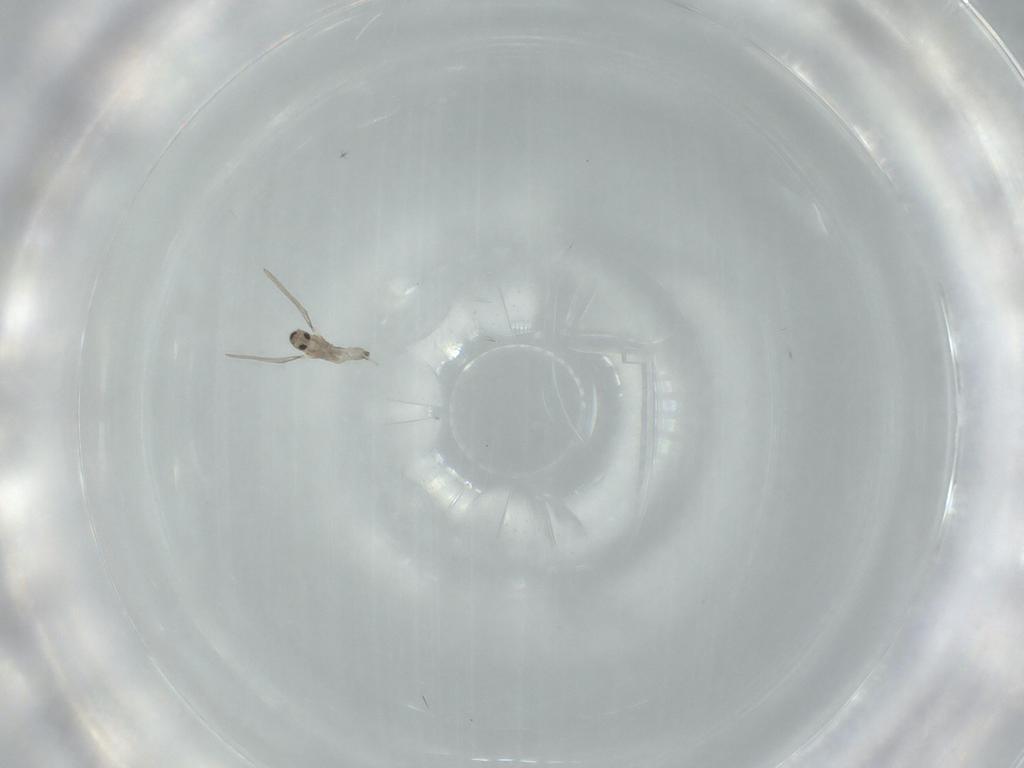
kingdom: Animalia
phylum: Arthropoda
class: Insecta
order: Diptera
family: Cecidomyiidae
